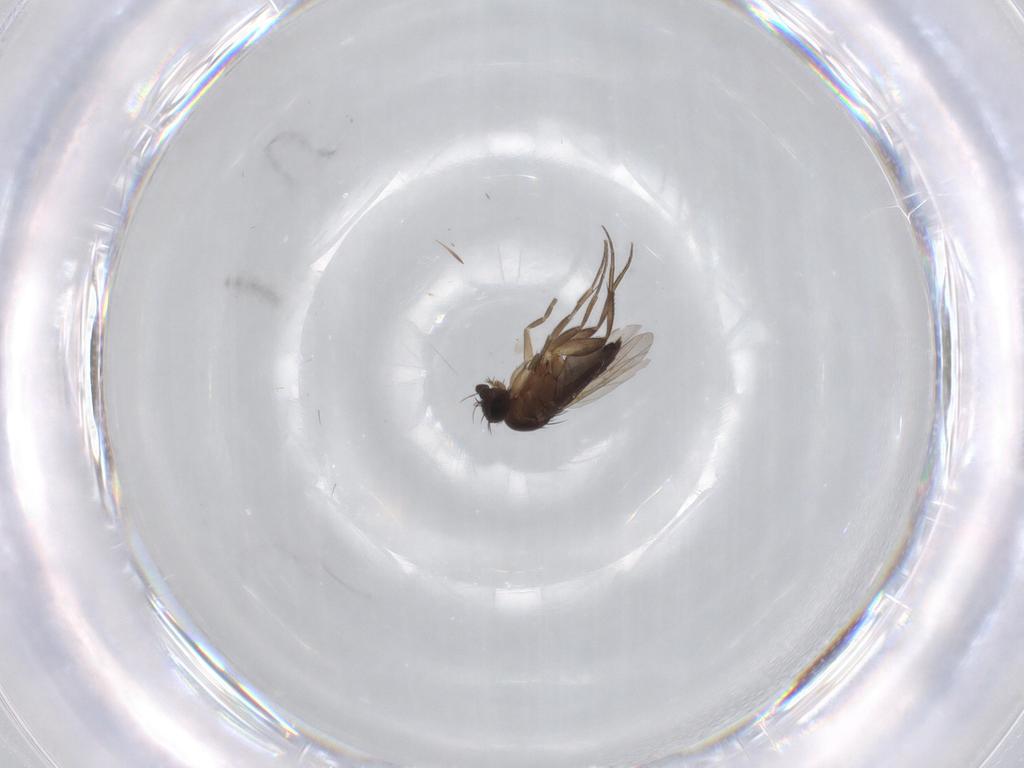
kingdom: Animalia
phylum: Arthropoda
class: Insecta
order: Diptera
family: Phoridae
